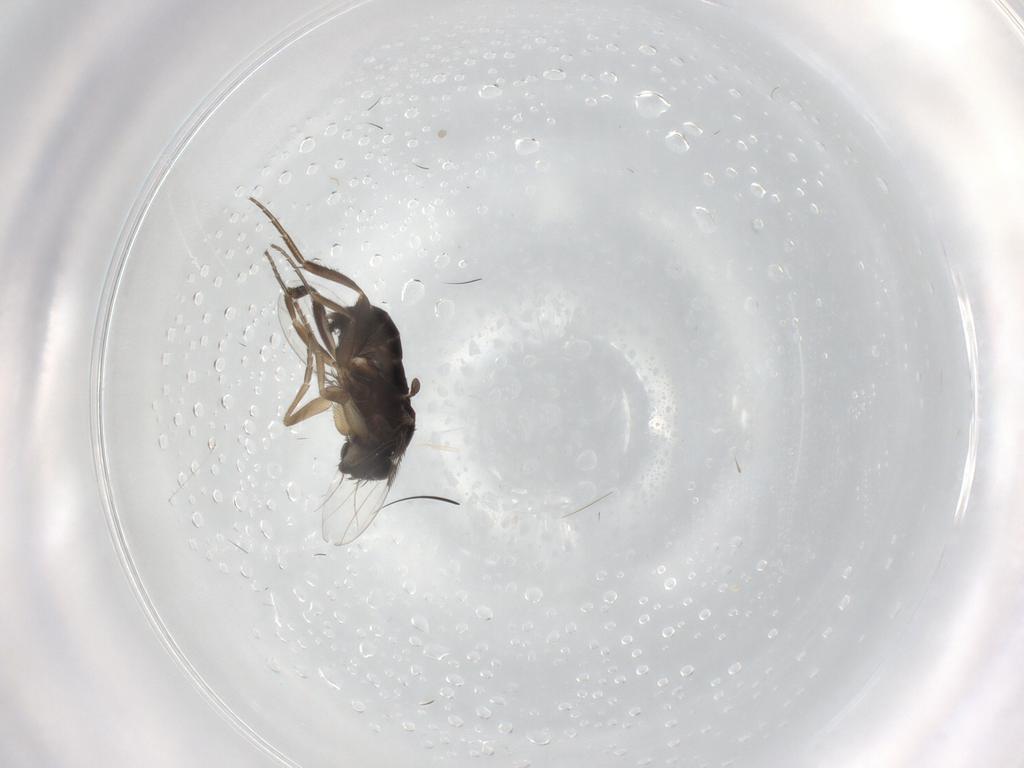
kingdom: Animalia
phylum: Arthropoda
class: Insecta
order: Diptera
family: Phoridae
